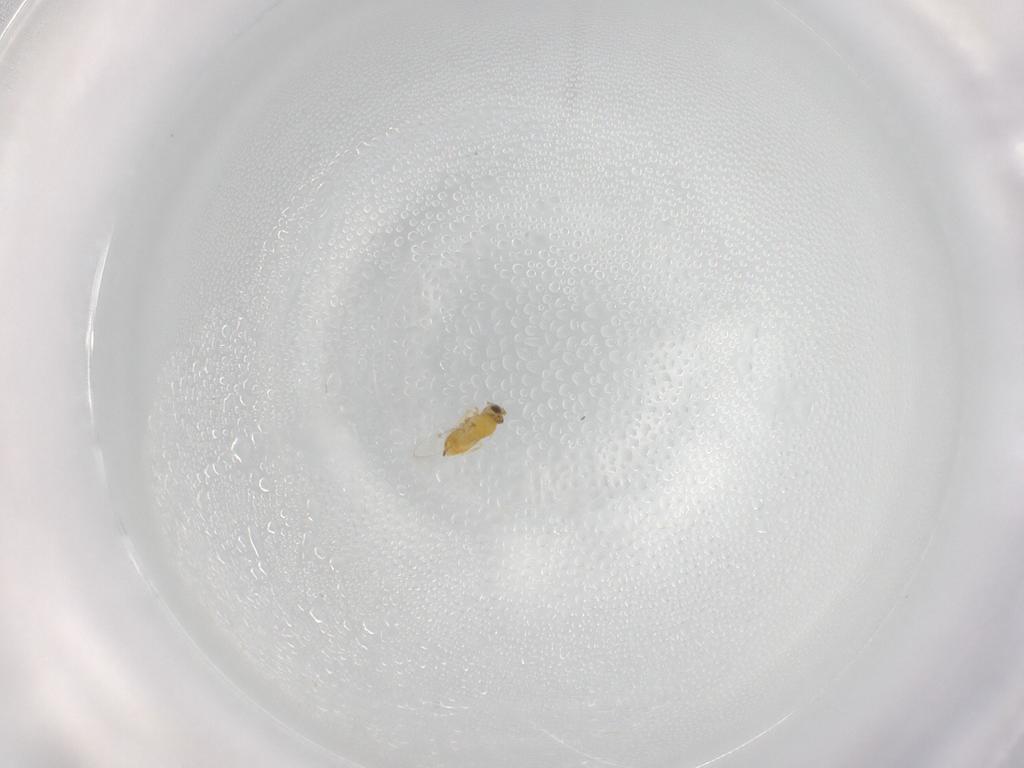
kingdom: Animalia
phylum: Arthropoda
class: Insecta
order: Hymenoptera
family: Aphelinidae
